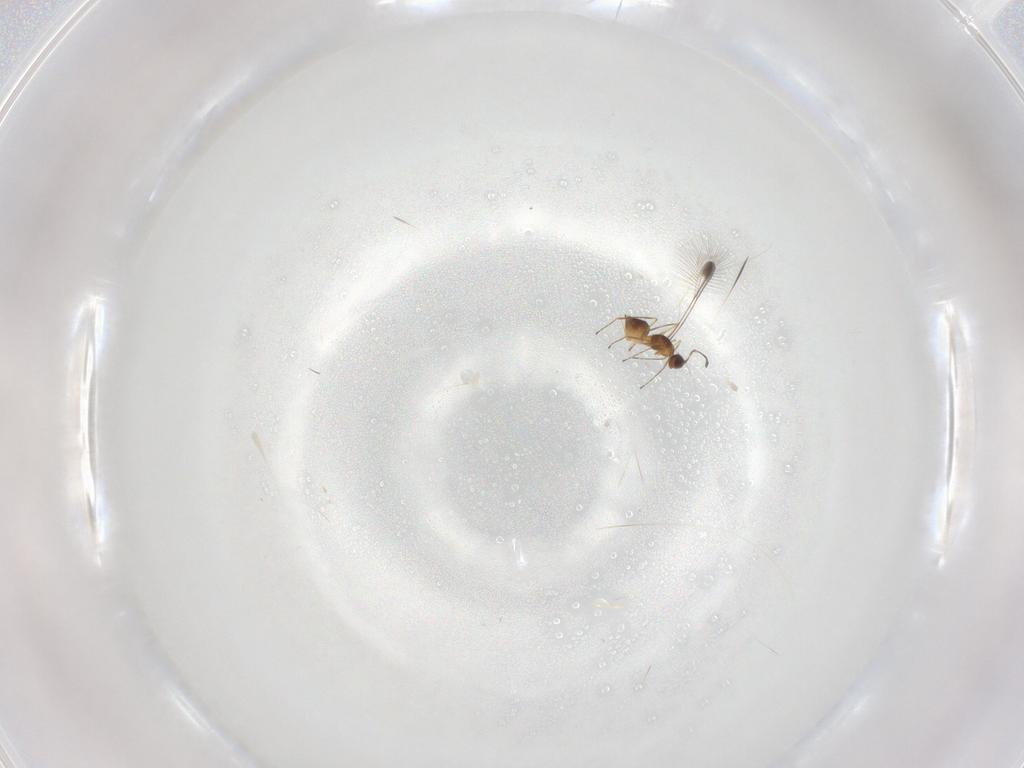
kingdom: Animalia
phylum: Arthropoda
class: Insecta
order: Hymenoptera
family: Mymaridae
